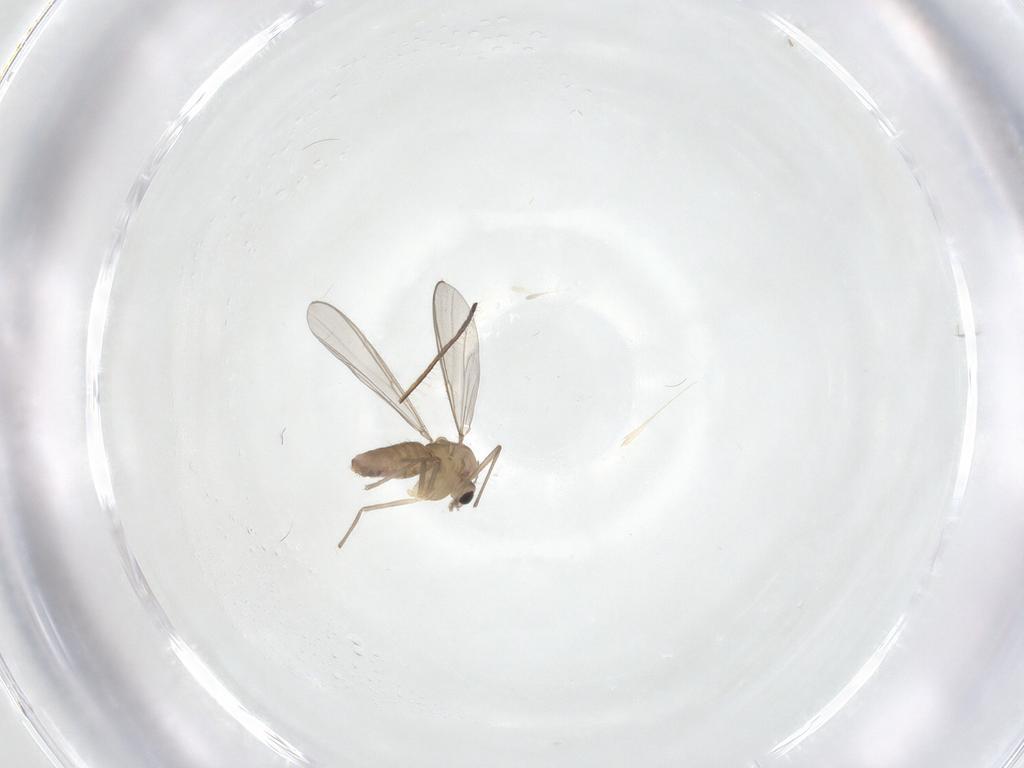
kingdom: Animalia
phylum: Arthropoda
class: Insecta
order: Diptera
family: Chironomidae
